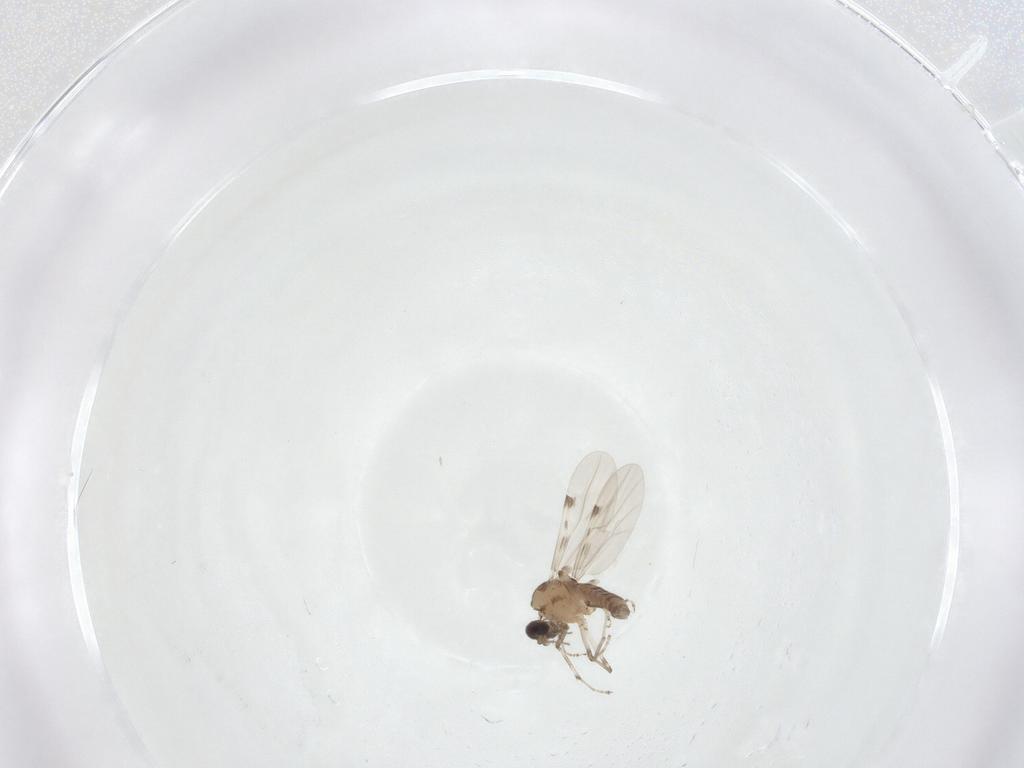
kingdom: Animalia
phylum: Arthropoda
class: Insecta
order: Diptera
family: Ceratopogonidae
